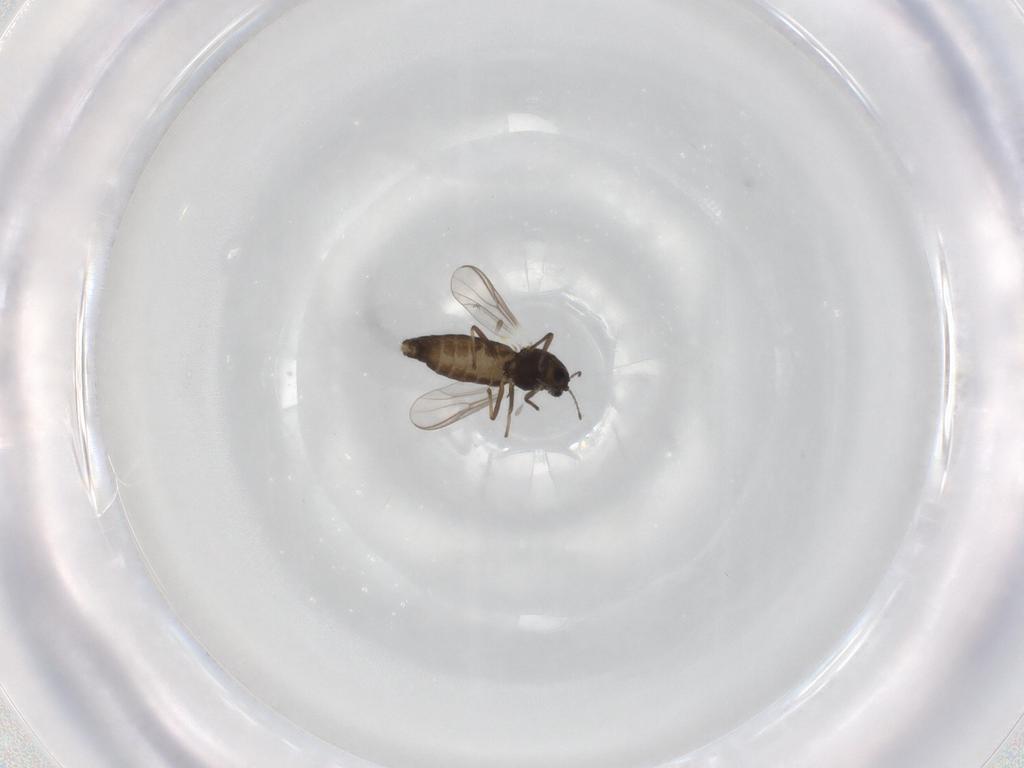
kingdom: Animalia
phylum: Arthropoda
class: Insecta
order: Diptera
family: Chironomidae
